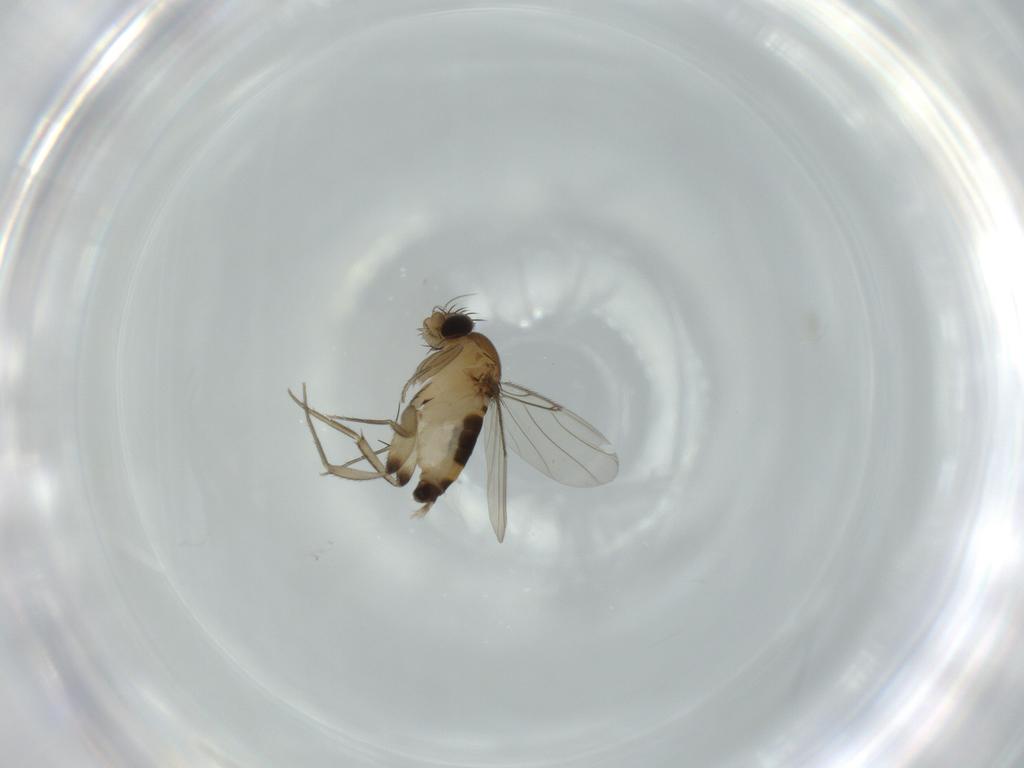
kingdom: Animalia
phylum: Arthropoda
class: Insecta
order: Diptera
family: Phoridae
